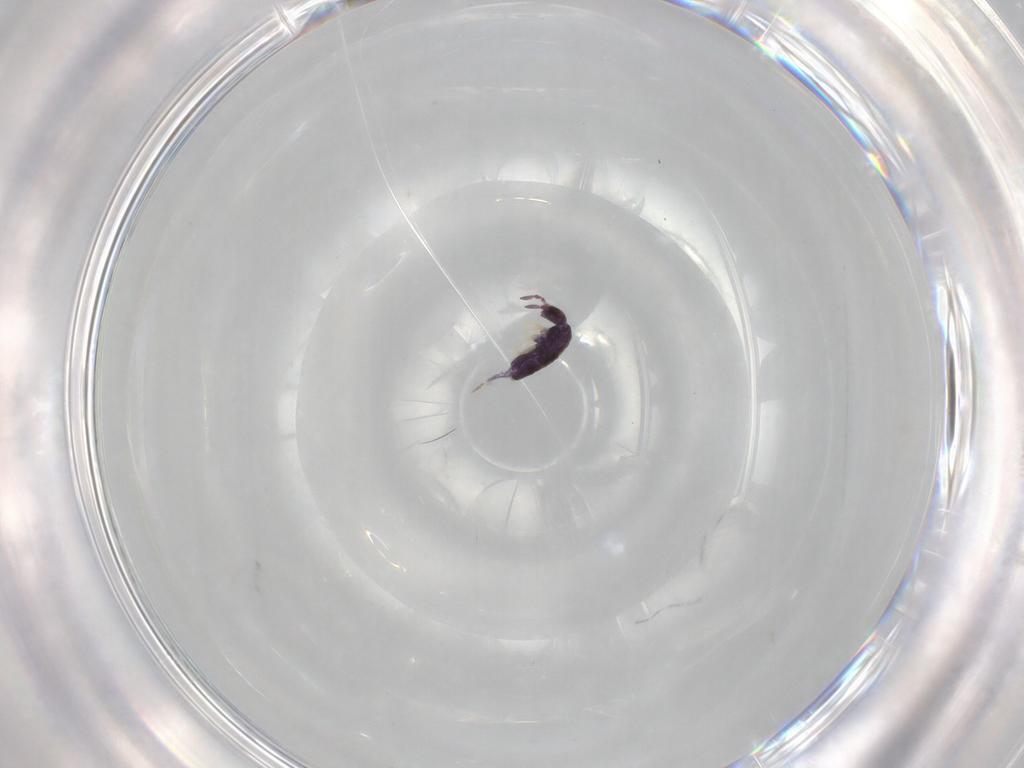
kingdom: Animalia
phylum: Arthropoda
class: Collembola
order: Entomobryomorpha
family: Entomobryidae
